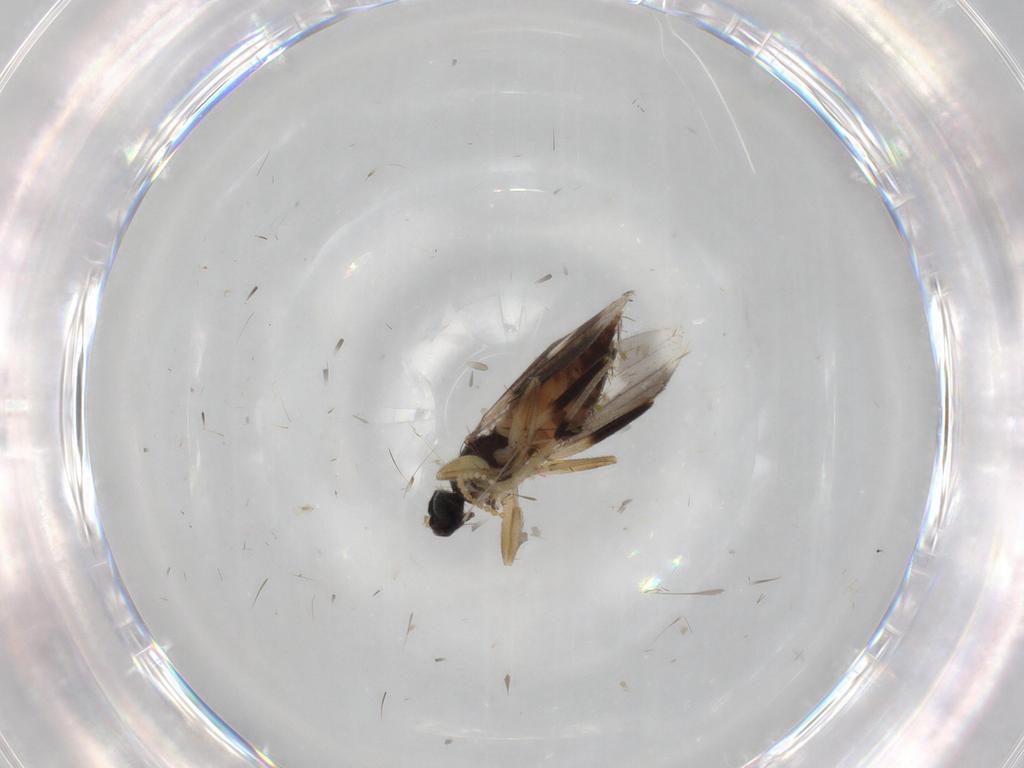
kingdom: Animalia
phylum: Arthropoda
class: Insecta
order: Diptera
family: Hybotidae
